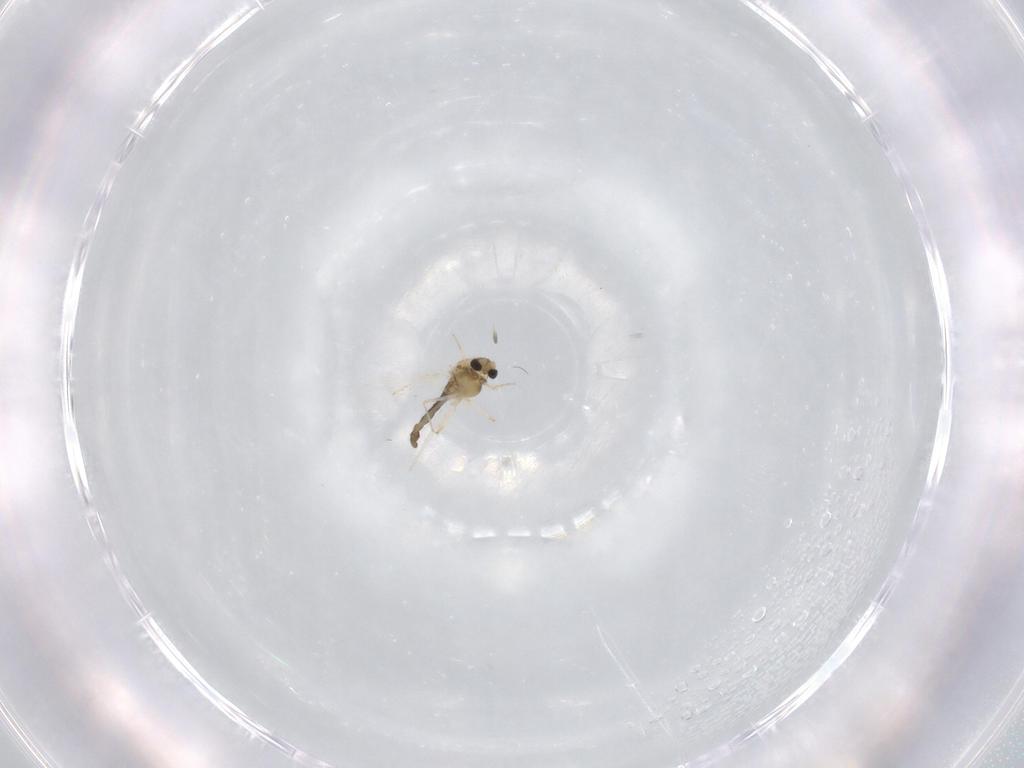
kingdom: Animalia
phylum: Arthropoda
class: Insecta
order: Diptera
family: Chironomidae
